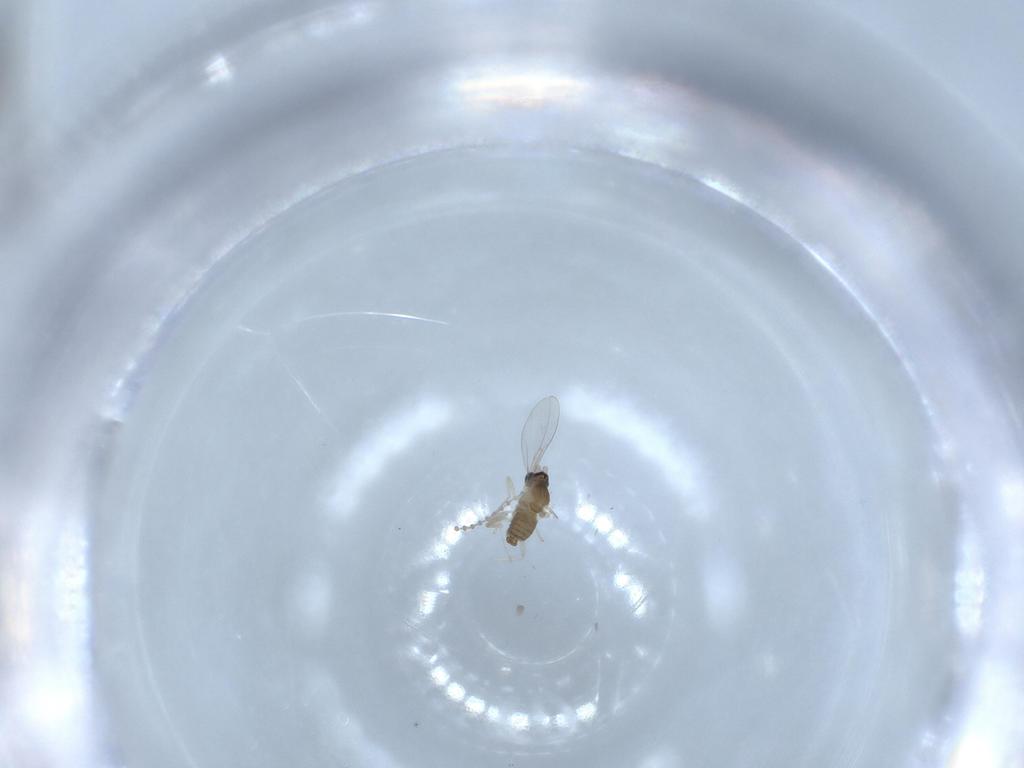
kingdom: Animalia
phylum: Arthropoda
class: Insecta
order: Diptera
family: Cecidomyiidae
